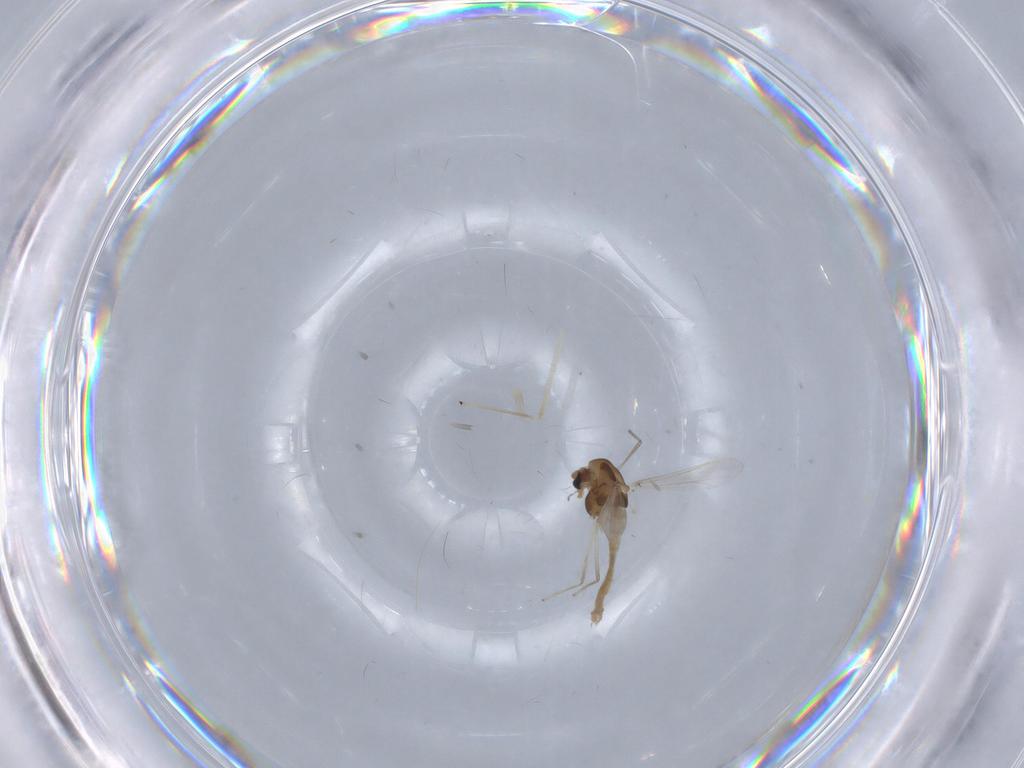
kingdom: Animalia
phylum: Arthropoda
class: Insecta
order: Diptera
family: Chironomidae
